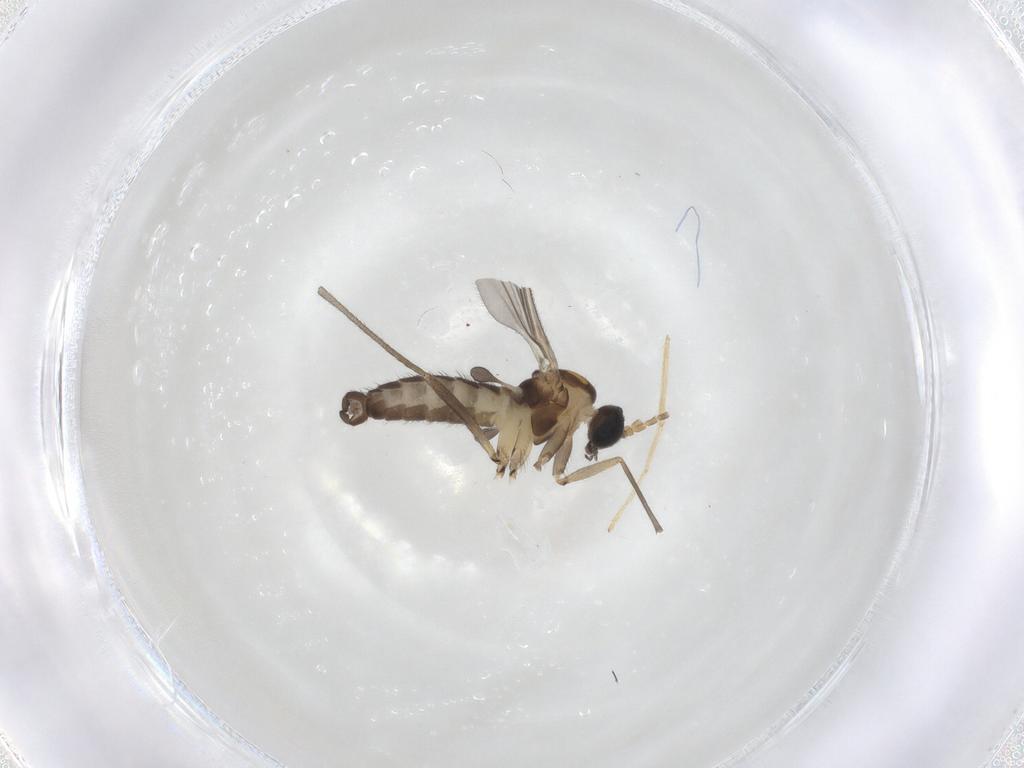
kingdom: Animalia
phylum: Arthropoda
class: Insecta
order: Diptera
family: Sciaridae
